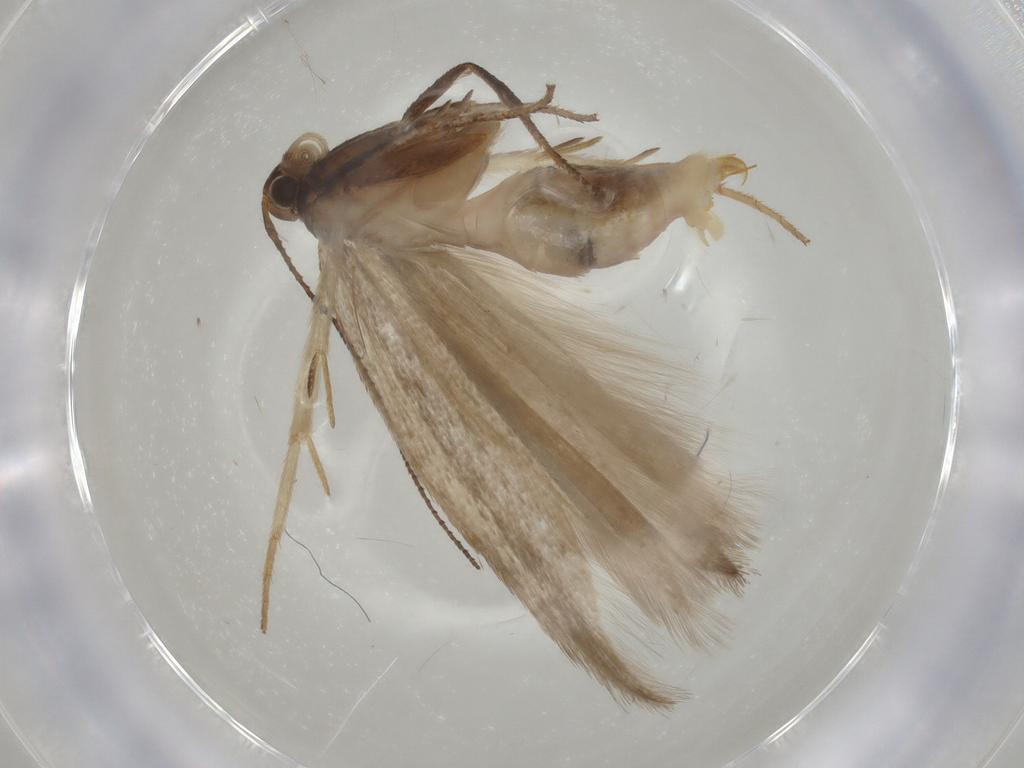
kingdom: Animalia
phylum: Arthropoda
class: Insecta
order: Lepidoptera
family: Gelechiidae
